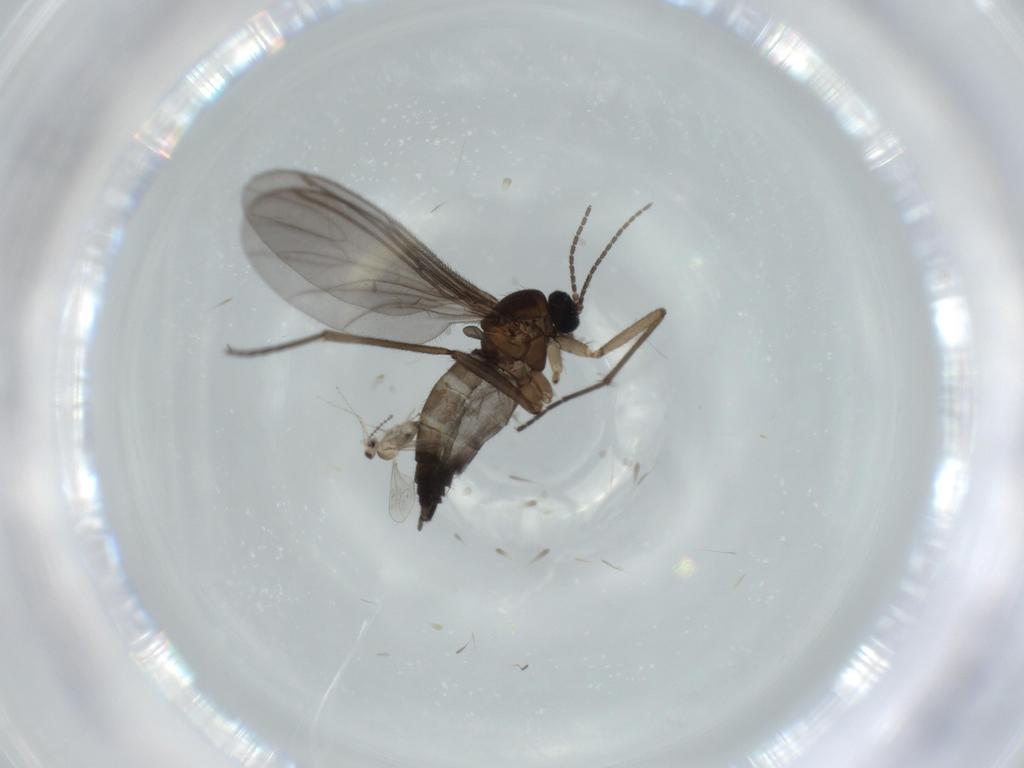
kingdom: Animalia
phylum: Arthropoda
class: Insecta
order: Diptera
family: Sciaridae
